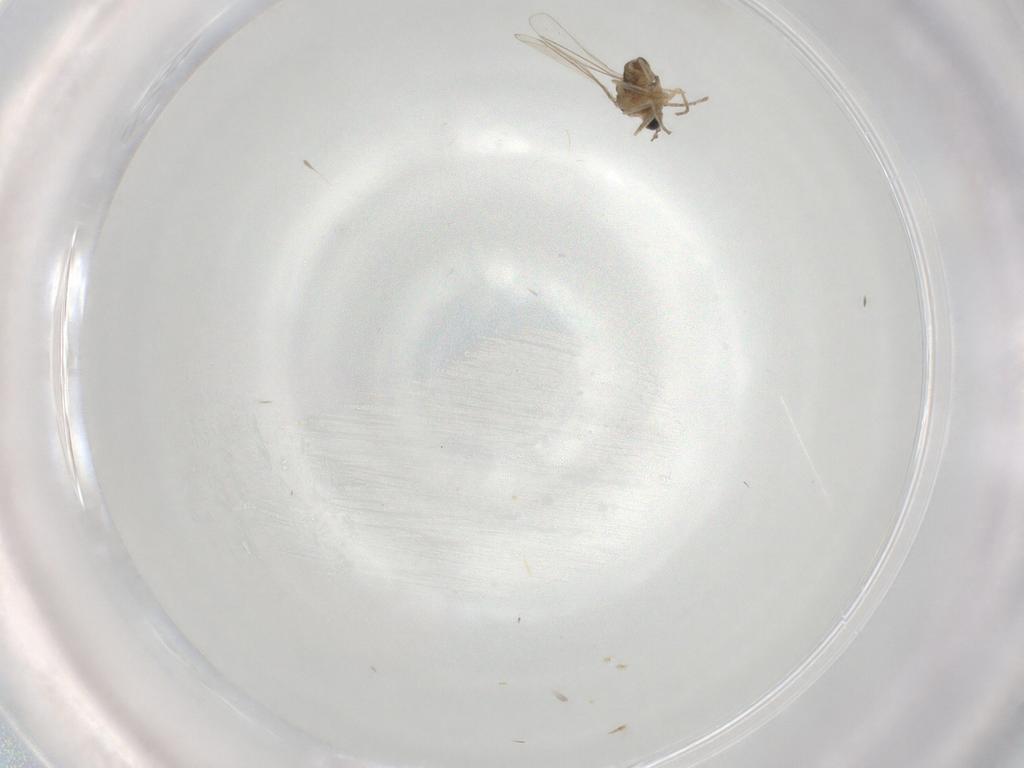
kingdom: Animalia
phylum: Arthropoda
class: Insecta
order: Diptera
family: Cecidomyiidae
